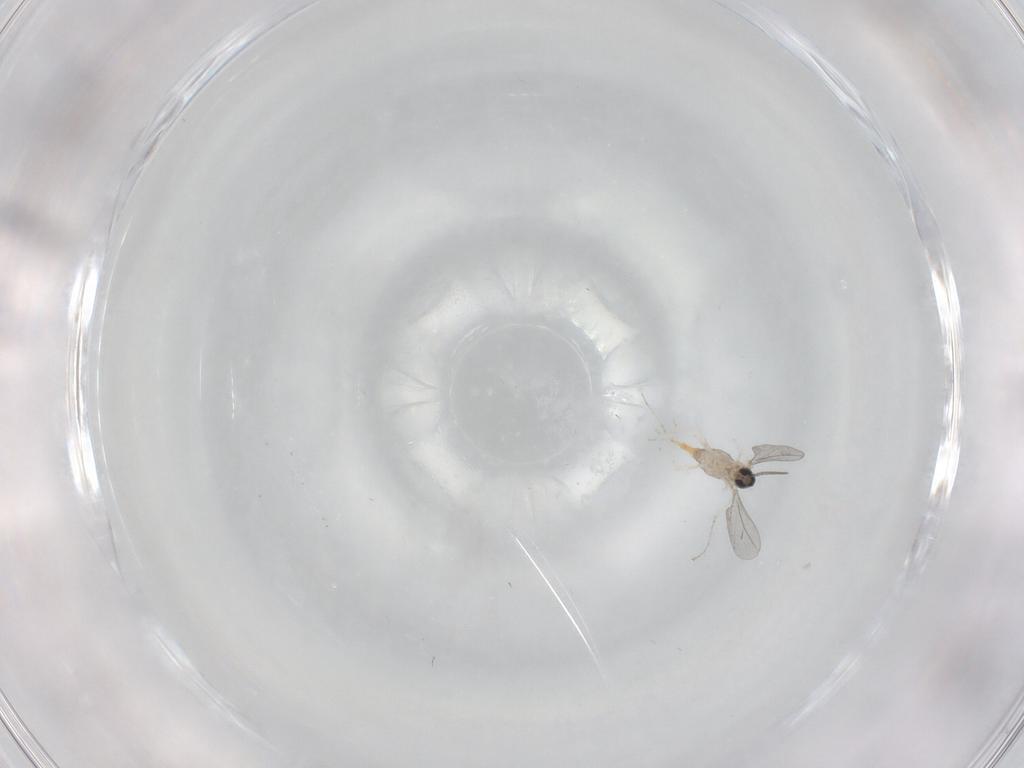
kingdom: Animalia
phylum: Arthropoda
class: Insecta
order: Diptera
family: Cecidomyiidae
